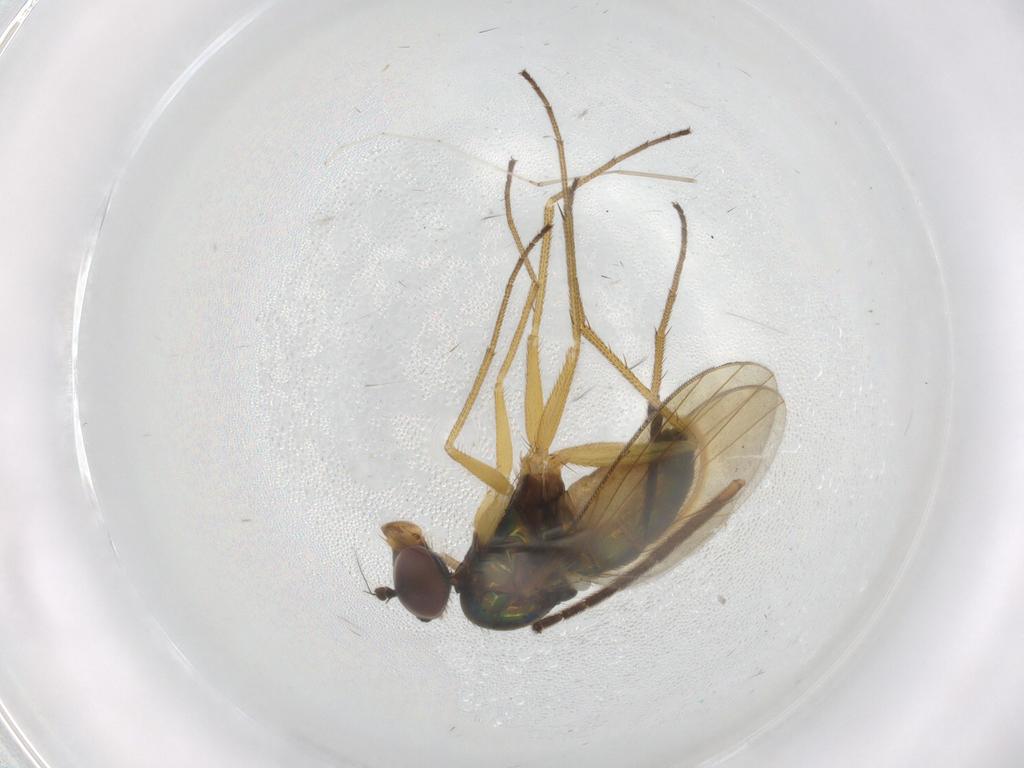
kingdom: Animalia
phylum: Arthropoda
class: Insecta
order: Diptera
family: Dolichopodidae
